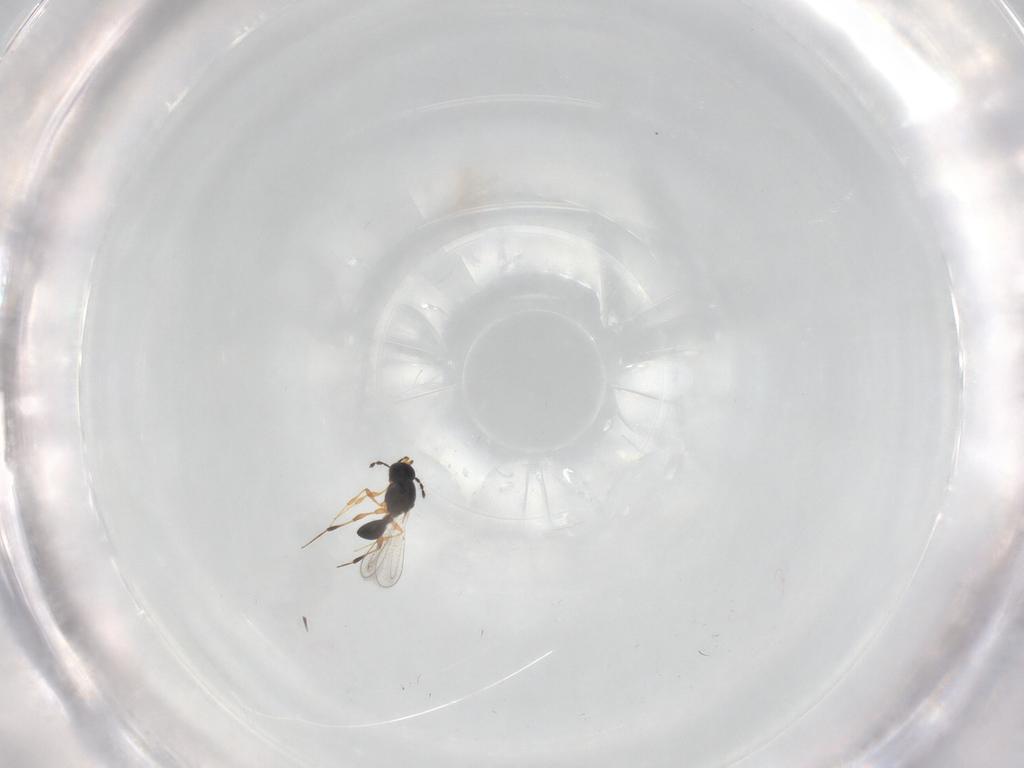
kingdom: Animalia
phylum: Arthropoda
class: Insecta
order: Hymenoptera
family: Platygastridae
